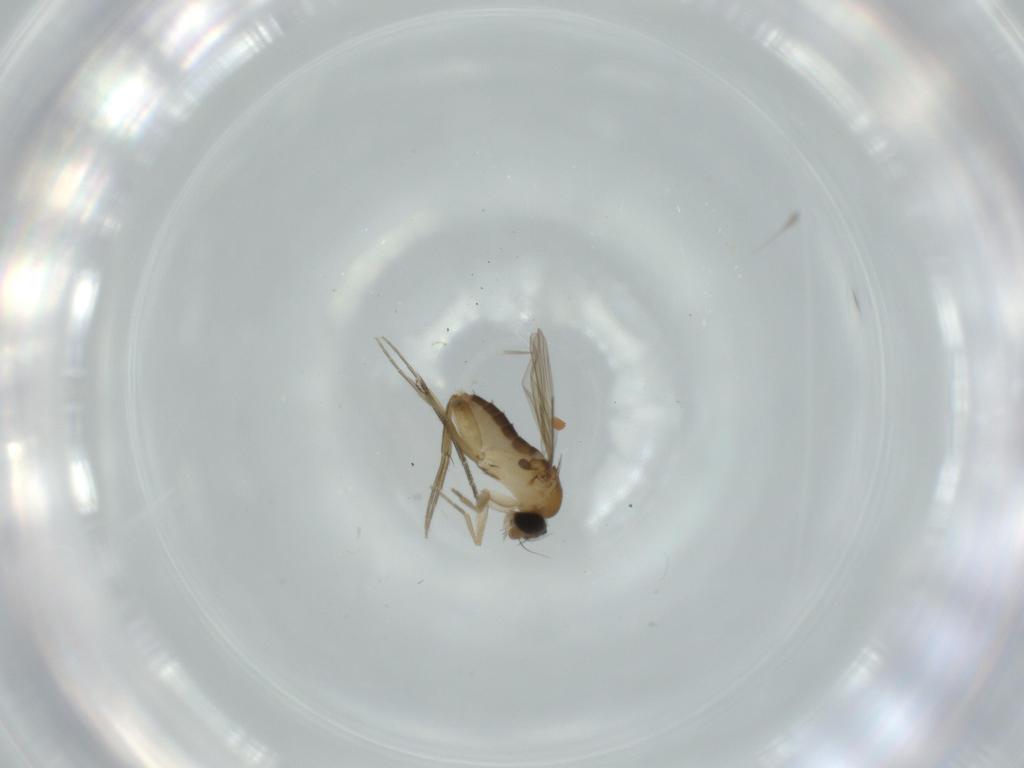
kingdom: Animalia
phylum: Arthropoda
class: Insecta
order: Diptera
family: Phoridae
